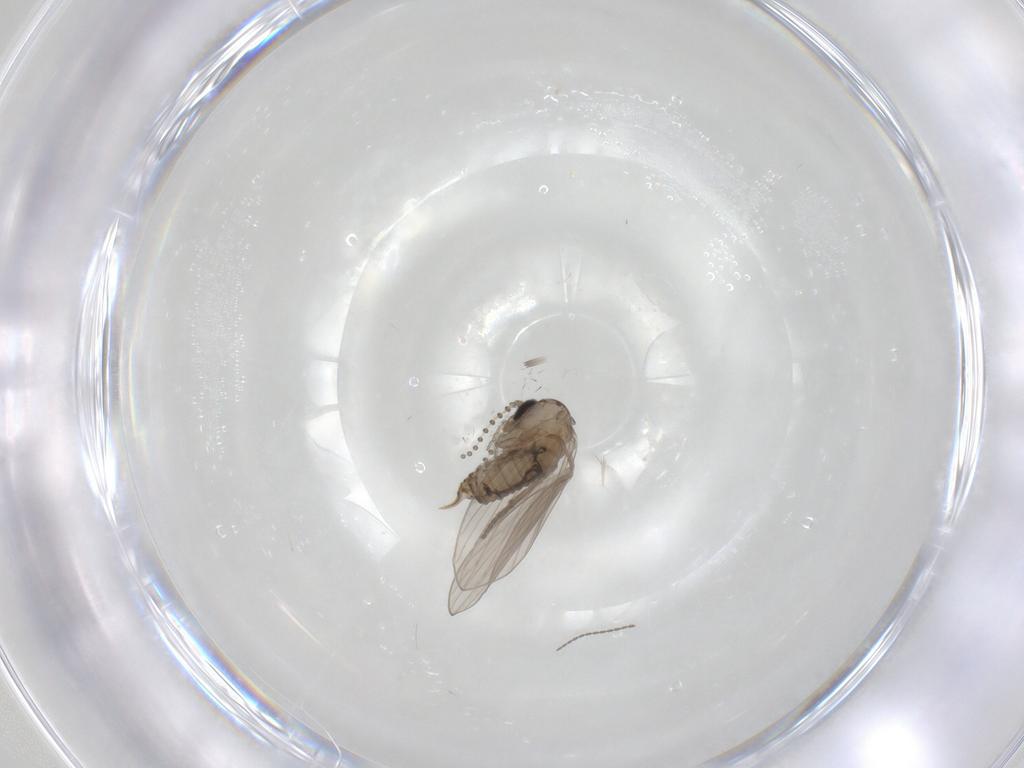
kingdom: Animalia
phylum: Arthropoda
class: Insecta
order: Diptera
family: Psychodidae
